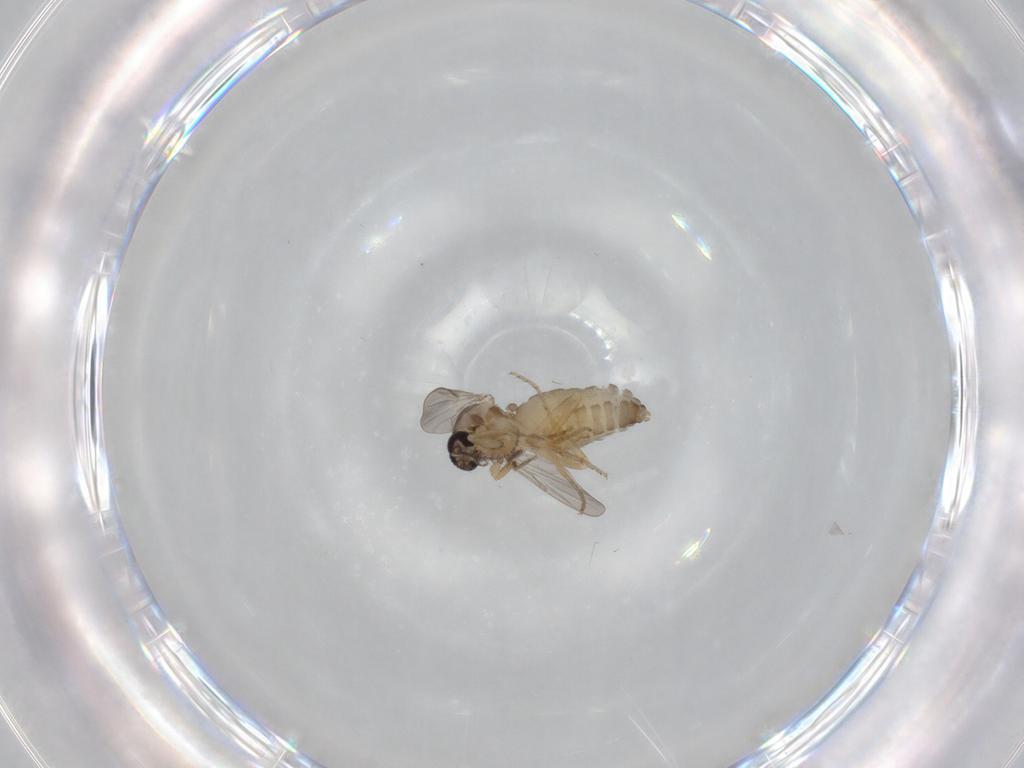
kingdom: Animalia
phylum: Arthropoda
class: Insecta
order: Diptera
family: Ceratopogonidae
